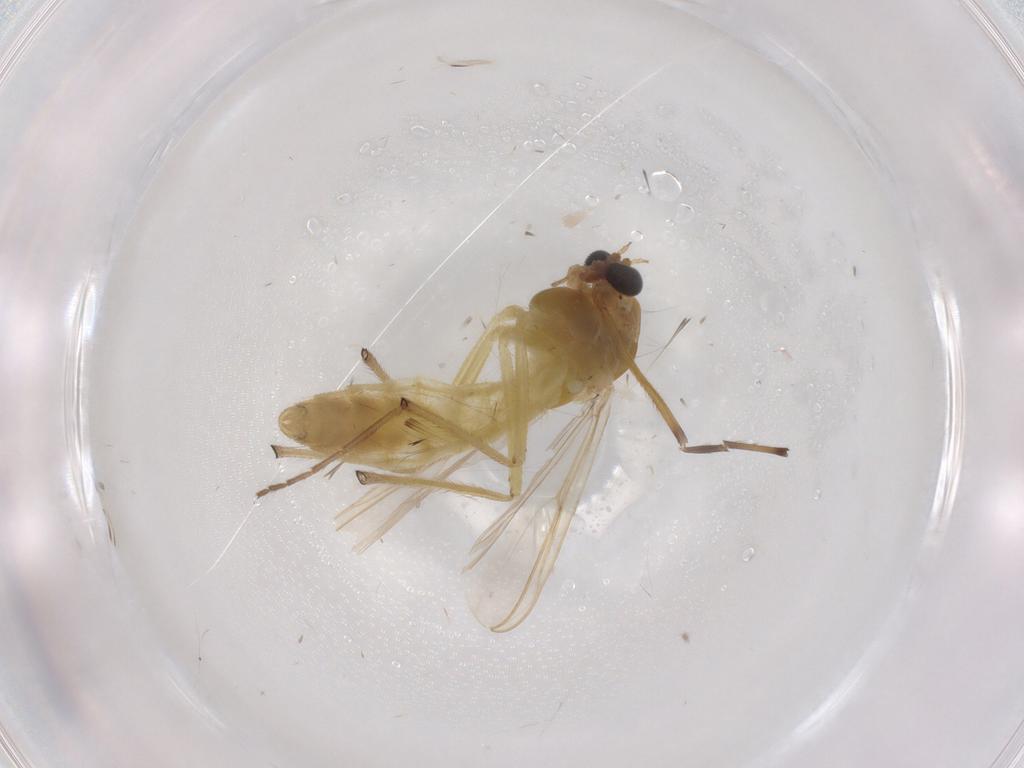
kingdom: Animalia
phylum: Arthropoda
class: Insecta
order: Diptera
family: Chironomidae
